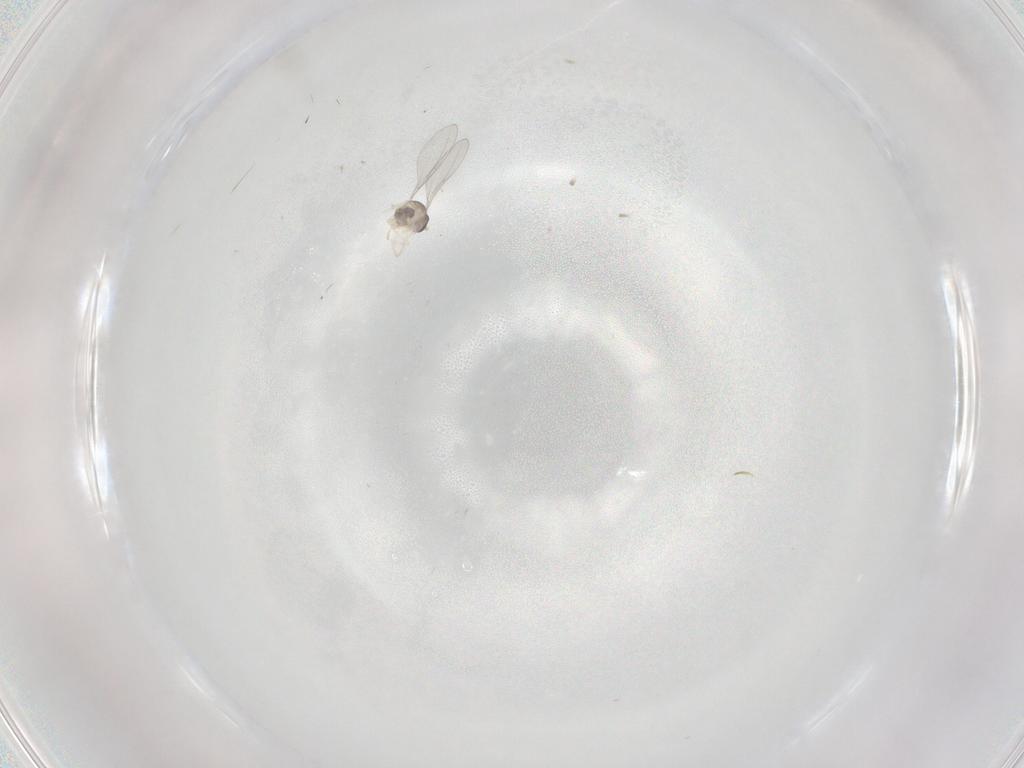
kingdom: Animalia
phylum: Arthropoda
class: Insecta
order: Diptera
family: Cecidomyiidae
